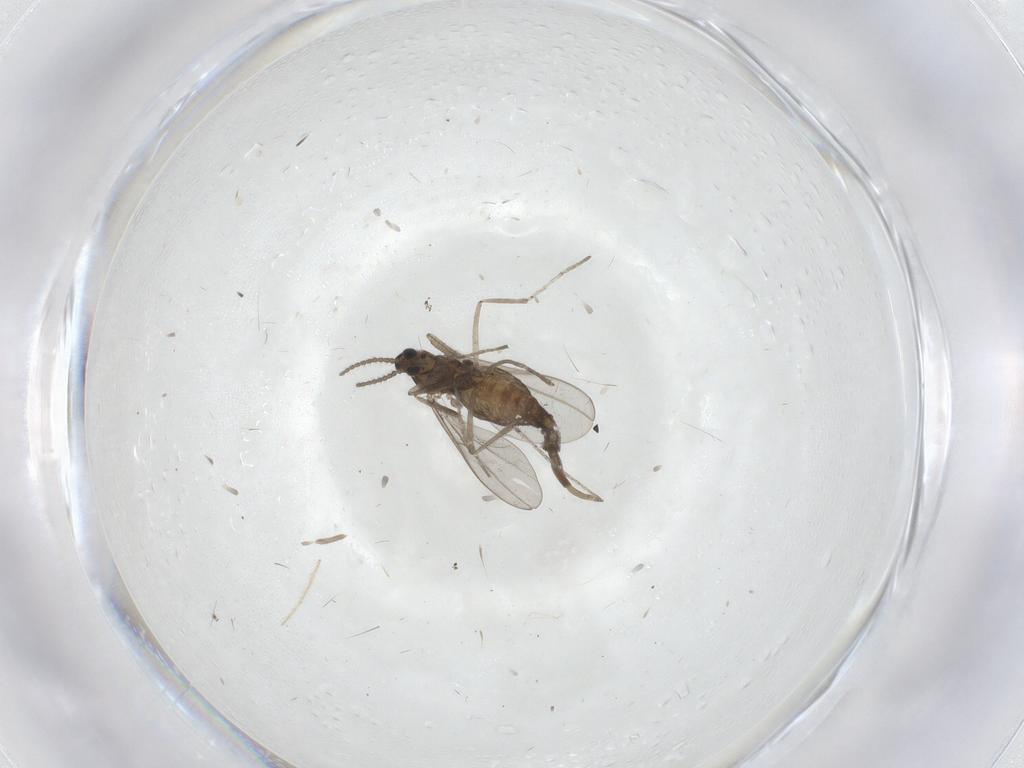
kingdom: Animalia
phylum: Arthropoda
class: Insecta
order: Diptera
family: Cecidomyiidae
